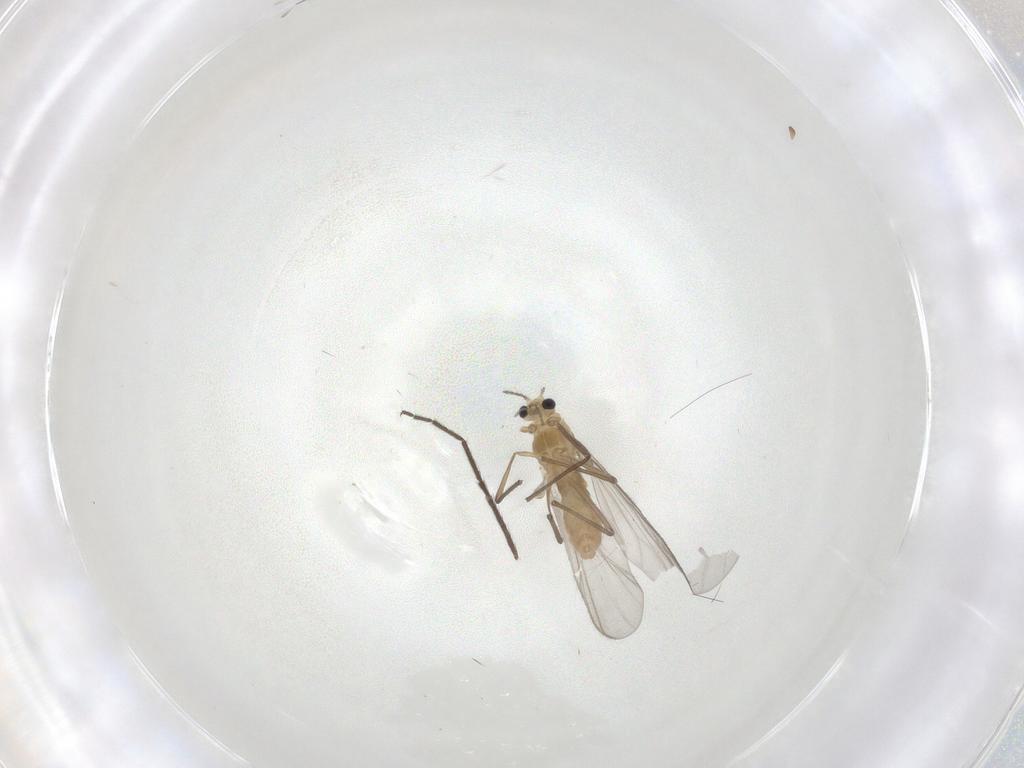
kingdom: Animalia
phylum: Arthropoda
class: Insecta
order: Diptera
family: Chironomidae
